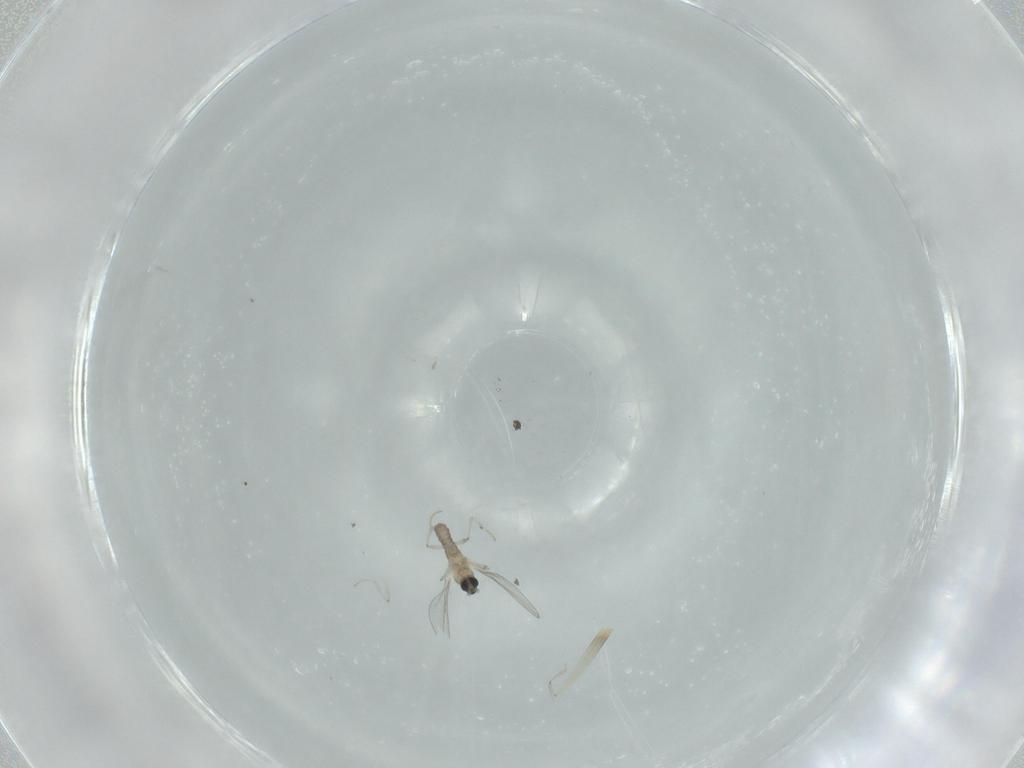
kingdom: Animalia
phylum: Arthropoda
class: Insecta
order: Diptera
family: Cecidomyiidae
